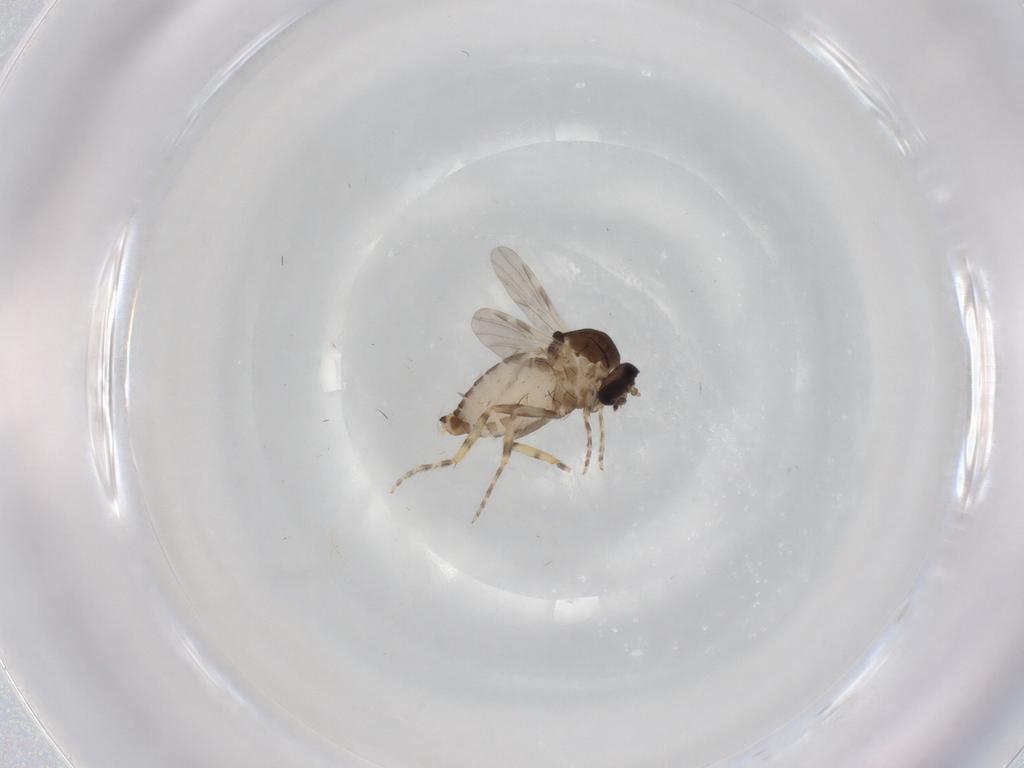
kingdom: Animalia
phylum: Arthropoda
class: Insecta
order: Diptera
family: Ceratopogonidae
